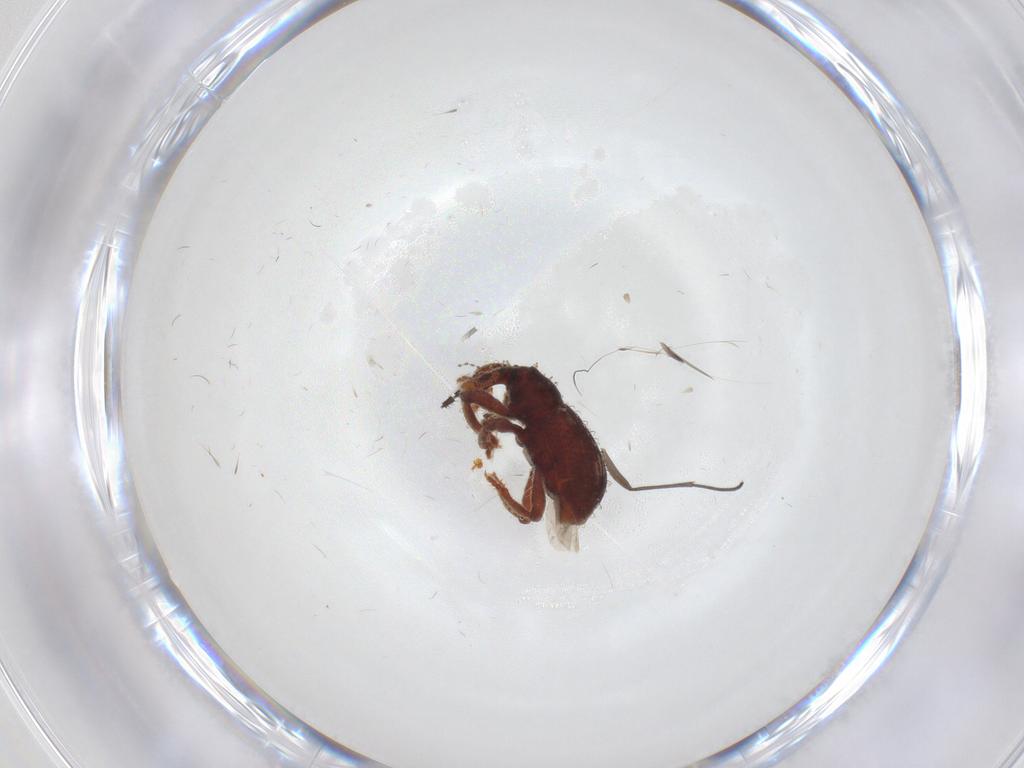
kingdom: Animalia
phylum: Arthropoda
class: Insecta
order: Coleoptera
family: Curculionidae
